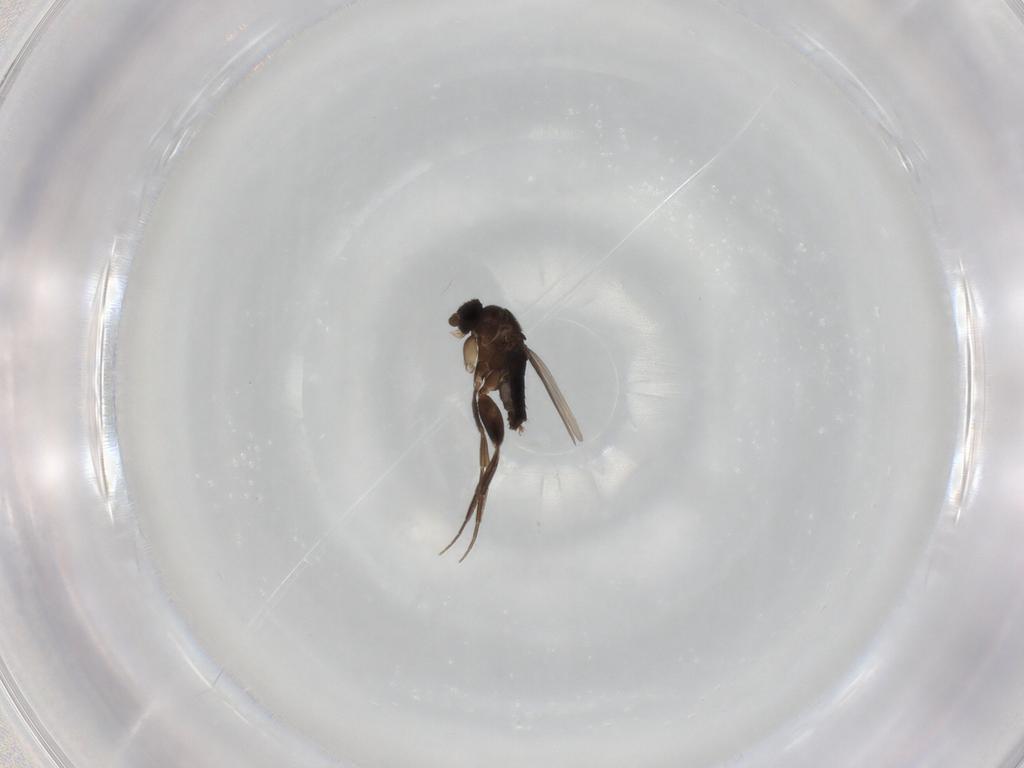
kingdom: Animalia
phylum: Arthropoda
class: Insecta
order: Diptera
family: Phoridae
